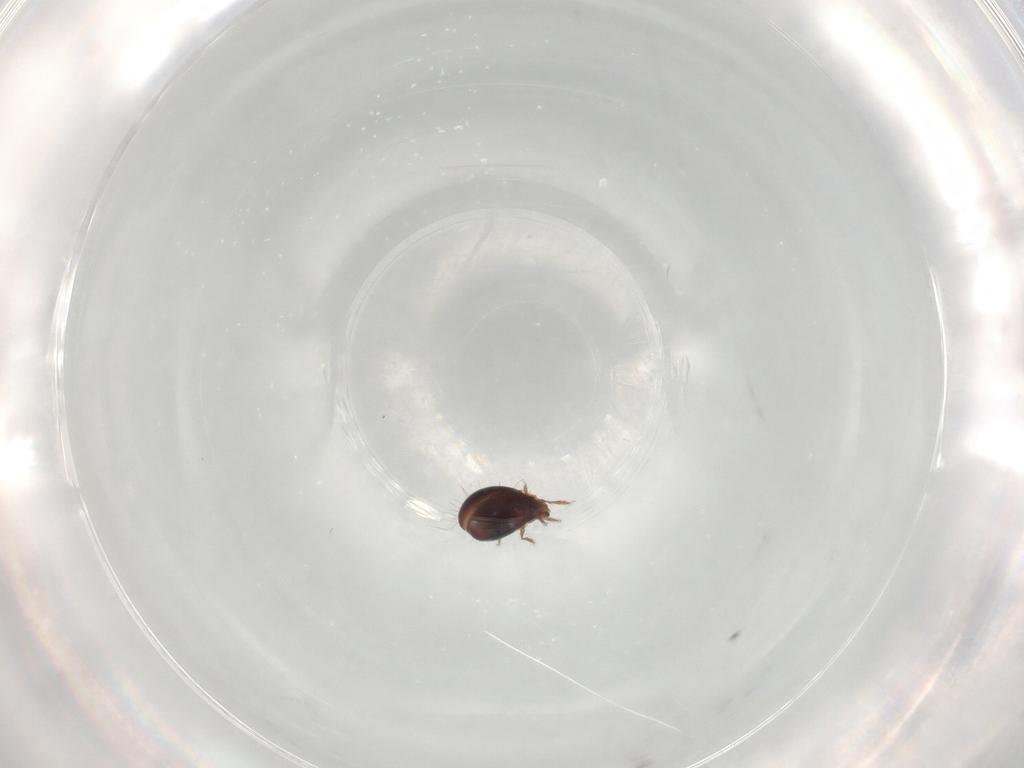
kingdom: Animalia
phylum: Arthropoda
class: Arachnida
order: Sarcoptiformes
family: Ceratozetidae
